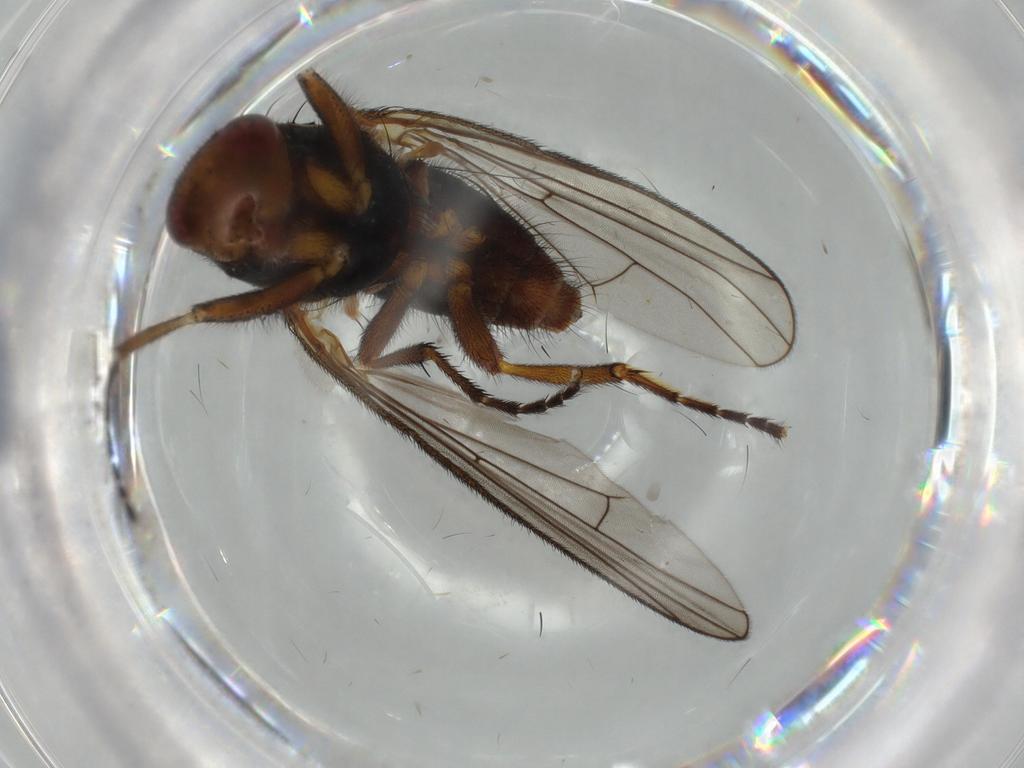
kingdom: Animalia
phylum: Arthropoda
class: Insecta
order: Diptera
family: Heleomyzidae
